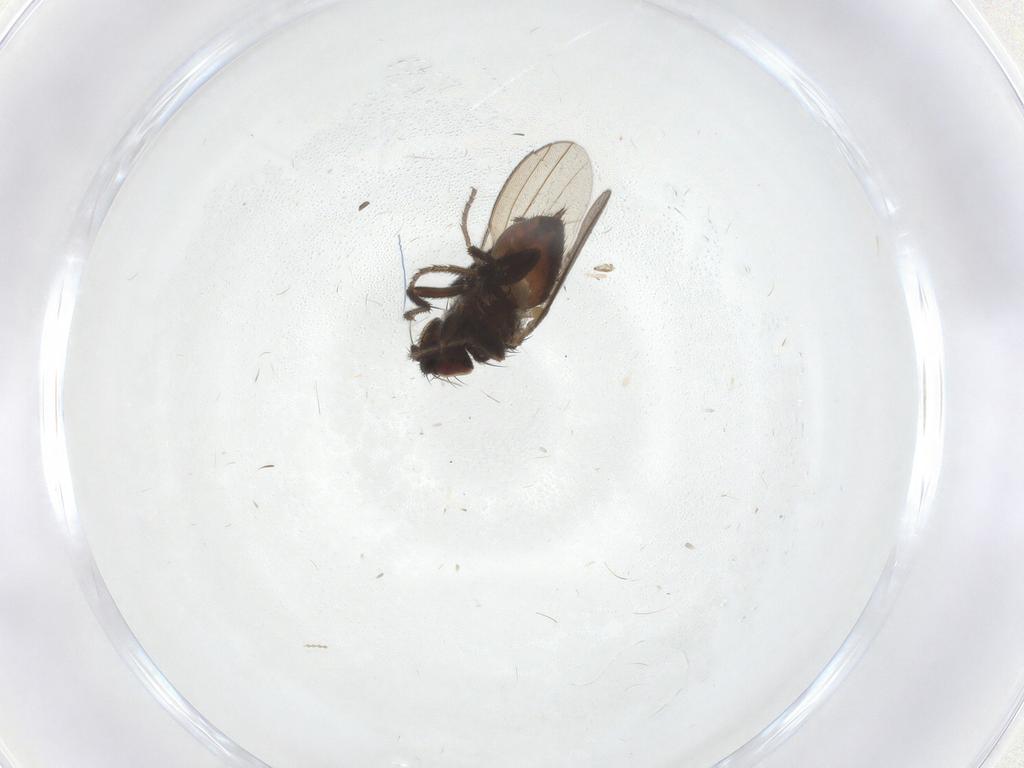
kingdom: Animalia
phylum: Arthropoda
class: Insecta
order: Diptera
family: Milichiidae
